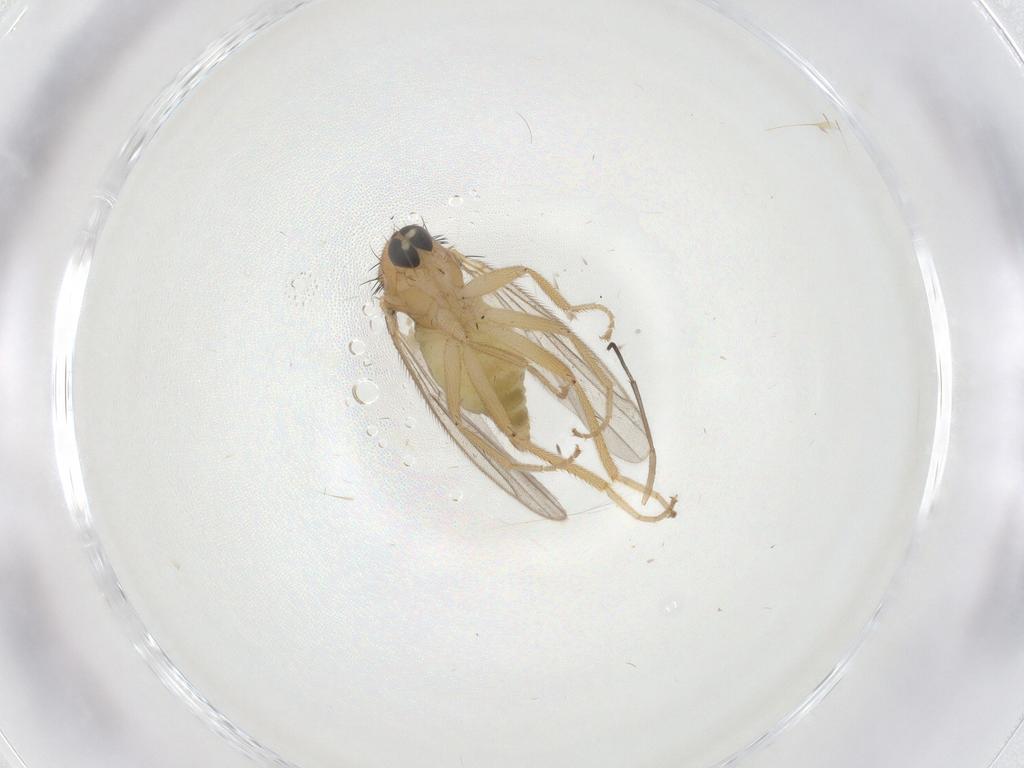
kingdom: Animalia
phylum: Arthropoda
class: Insecta
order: Diptera
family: Hybotidae
